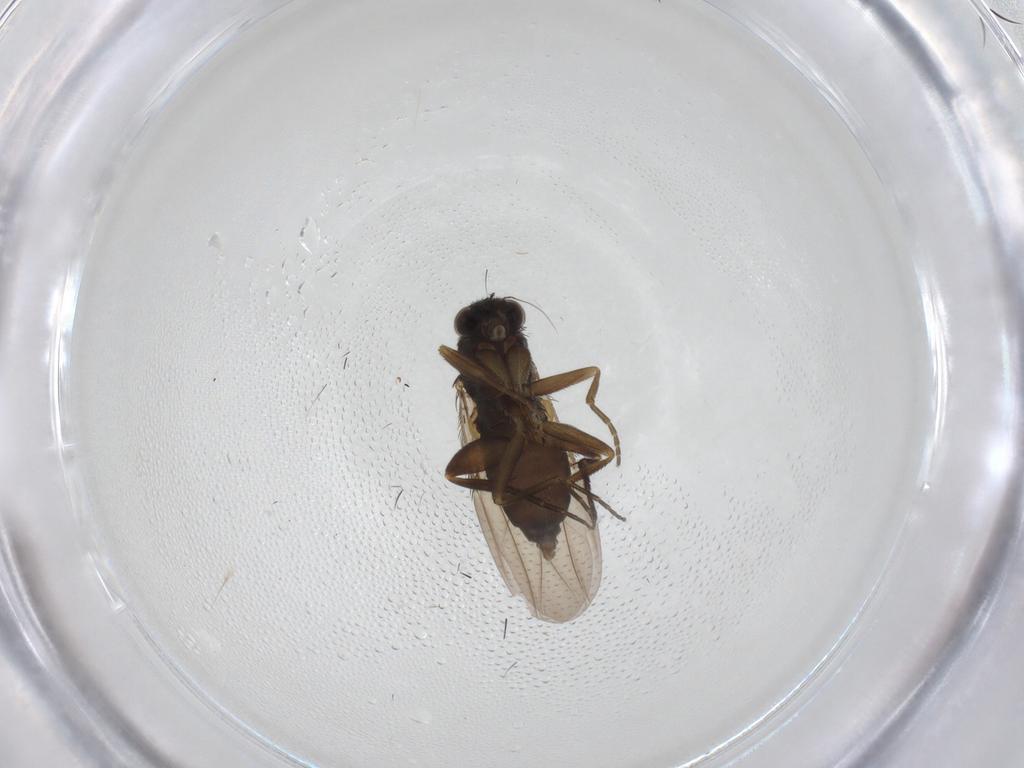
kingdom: Animalia
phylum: Arthropoda
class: Insecta
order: Diptera
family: Phoridae
